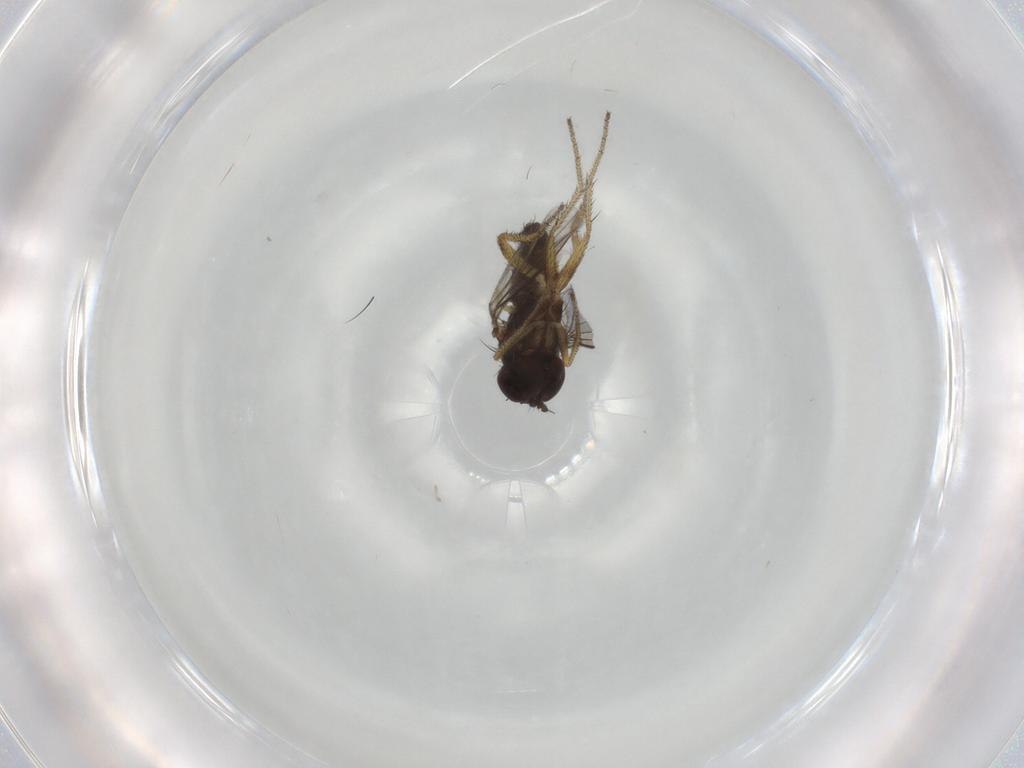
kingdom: Animalia
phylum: Arthropoda
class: Insecta
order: Diptera
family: Dolichopodidae
